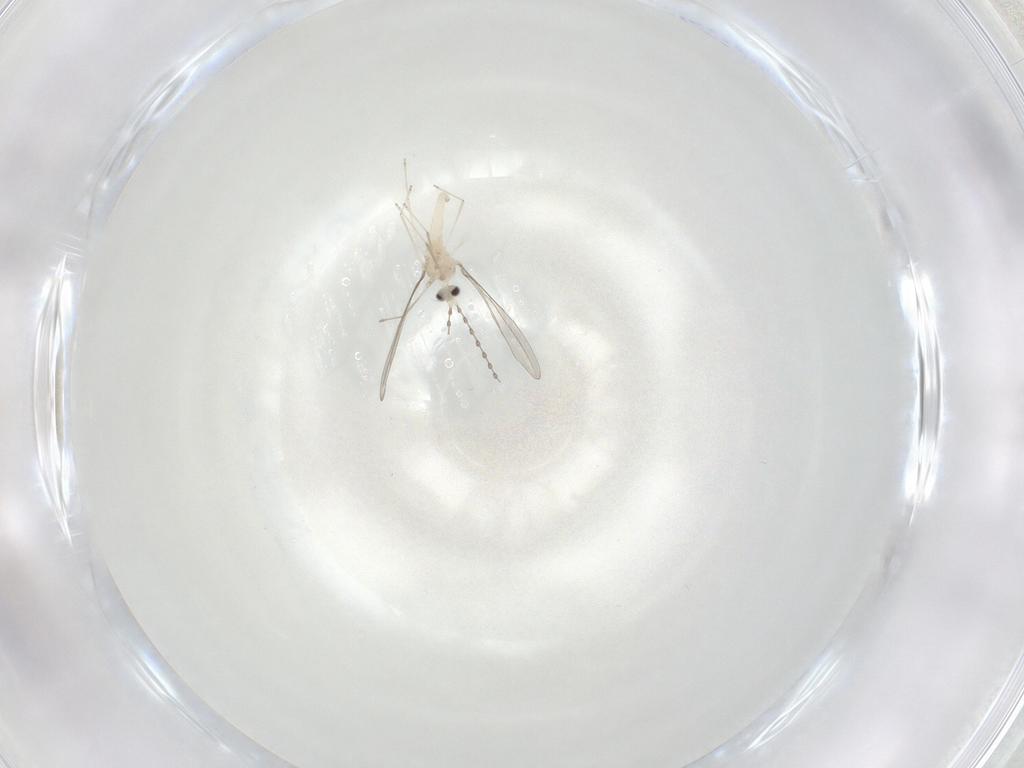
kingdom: Animalia
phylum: Arthropoda
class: Insecta
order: Diptera
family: Cecidomyiidae
